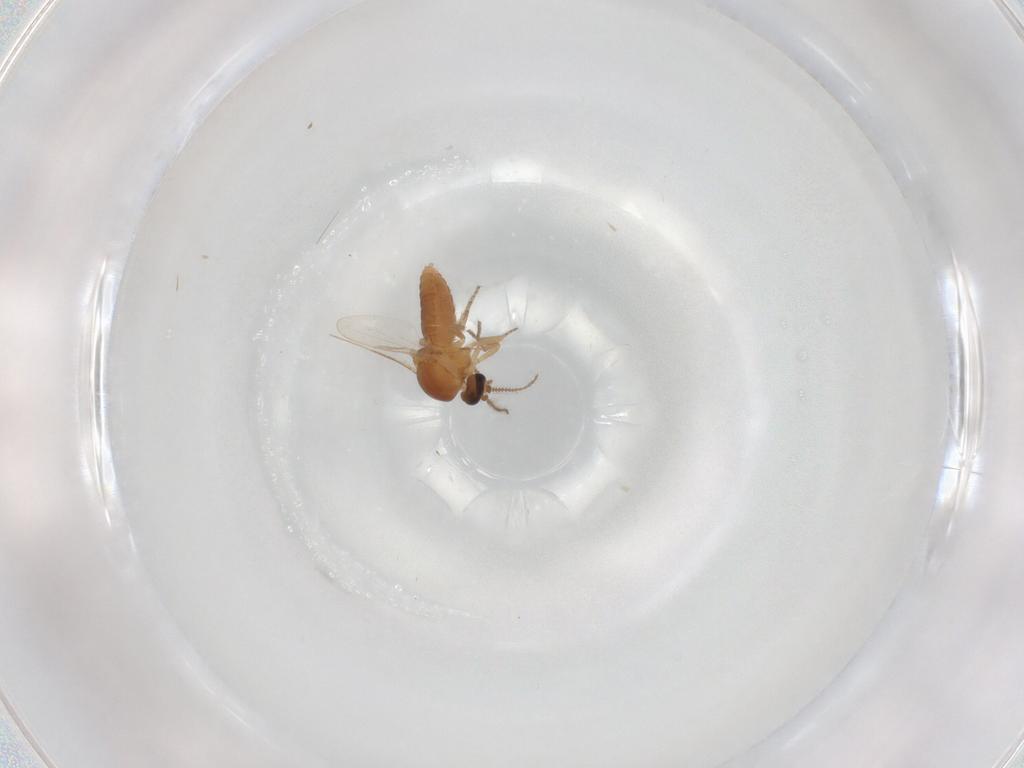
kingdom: Animalia
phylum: Arthropoda
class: Insecta
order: Diptera
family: Ceratopogonidae
